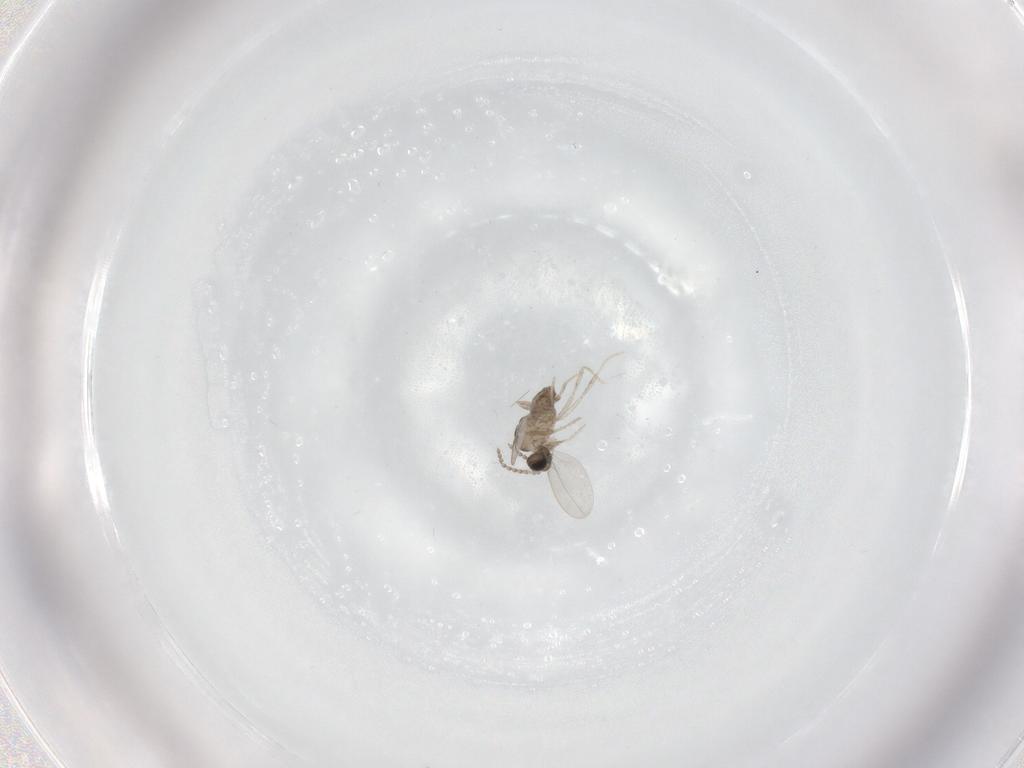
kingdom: Animalia
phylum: Arthropoda
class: Insecta
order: Diptera
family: Cecidomyiidae
